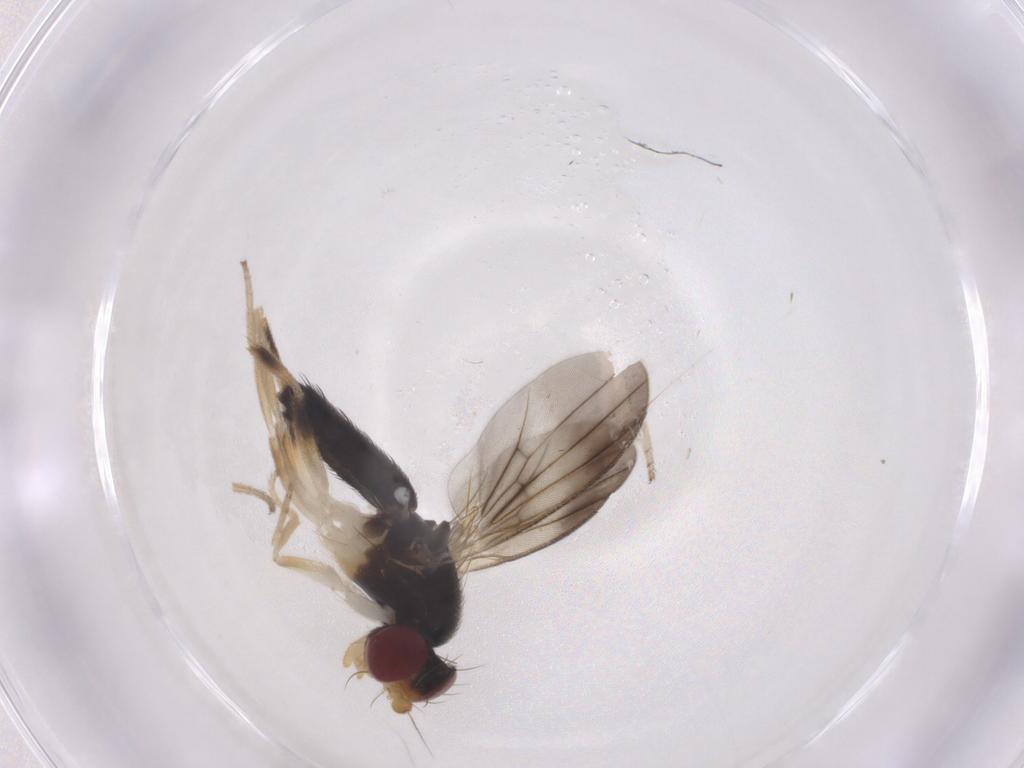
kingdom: Animalia
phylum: Arthropoda
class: Insecta
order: Diptera
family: Clusiidae
